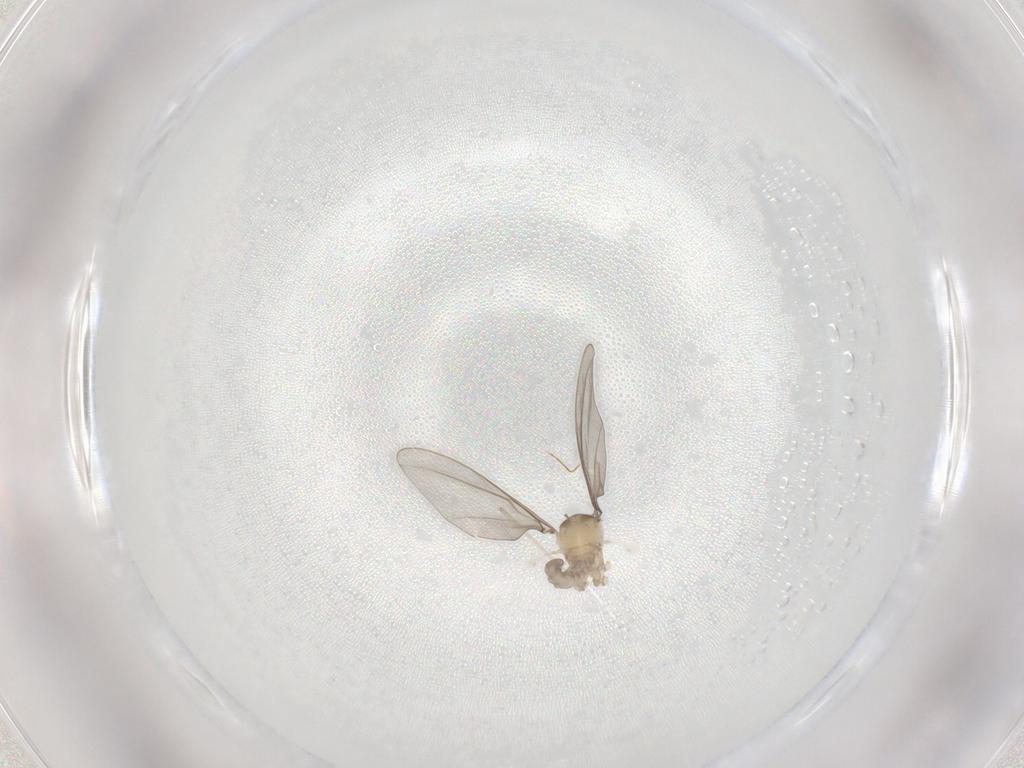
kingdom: Animalia
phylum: Arthropoda
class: Insecta
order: Diptera
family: Cecidomyiidae
